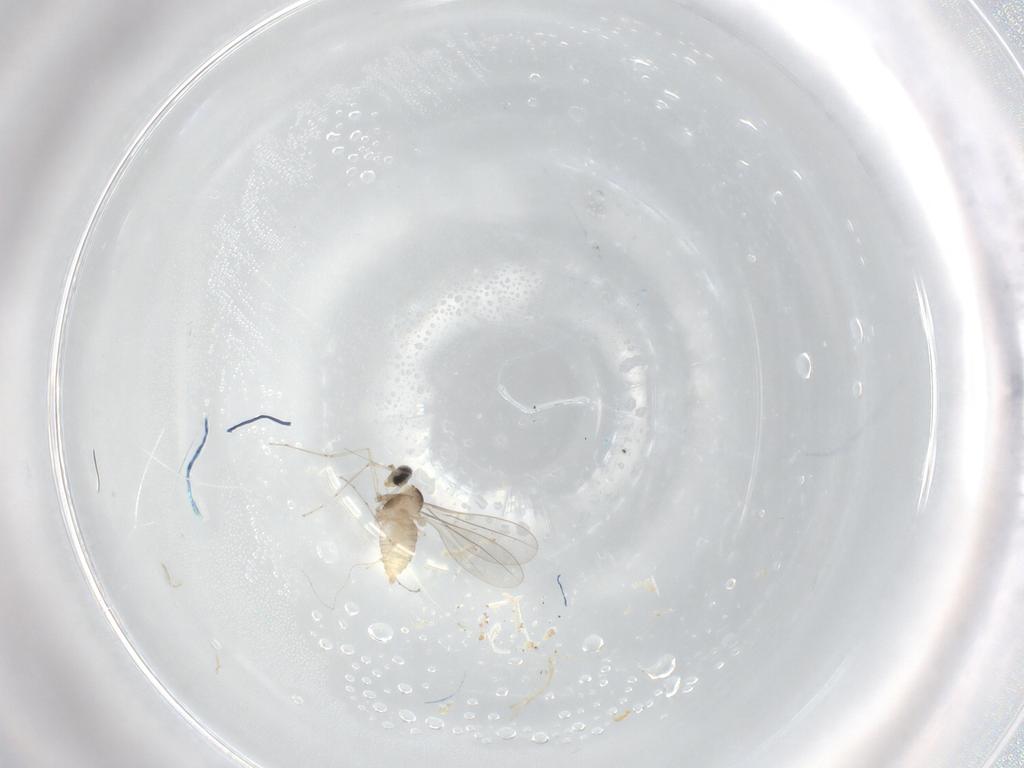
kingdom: Animalia
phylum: Arthropoda
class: Insecta
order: Diptera
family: Cecidomyiidae
